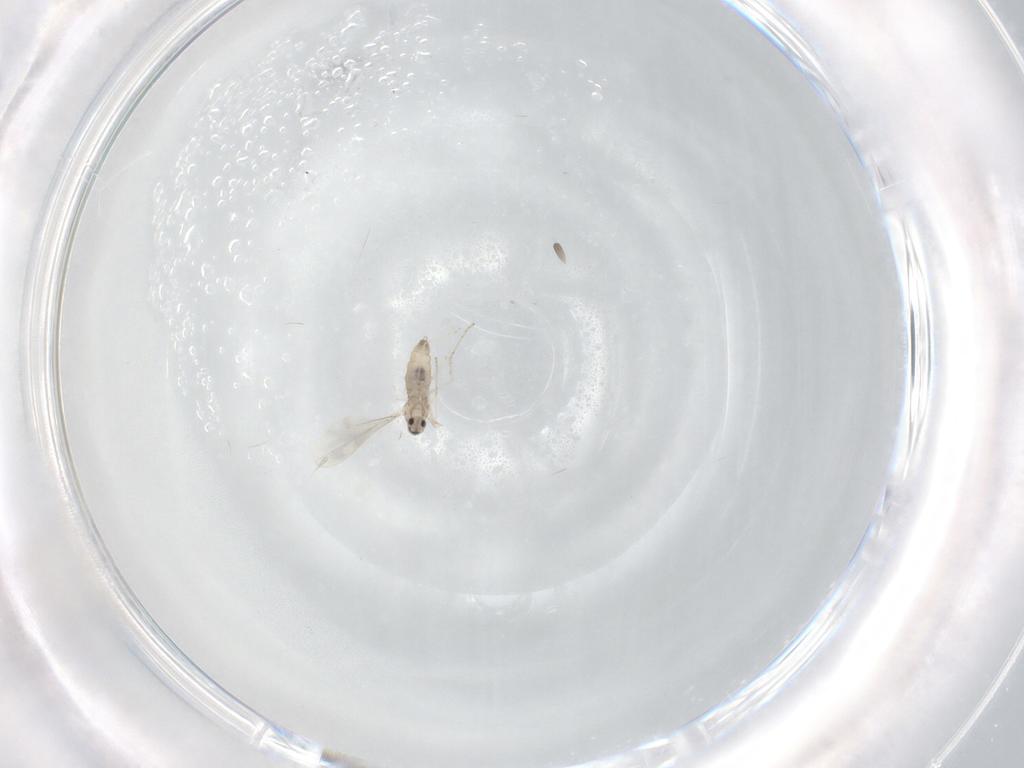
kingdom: Animalia
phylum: Arthropoda
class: Insecta
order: Diptera
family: Cecidomyiidae
